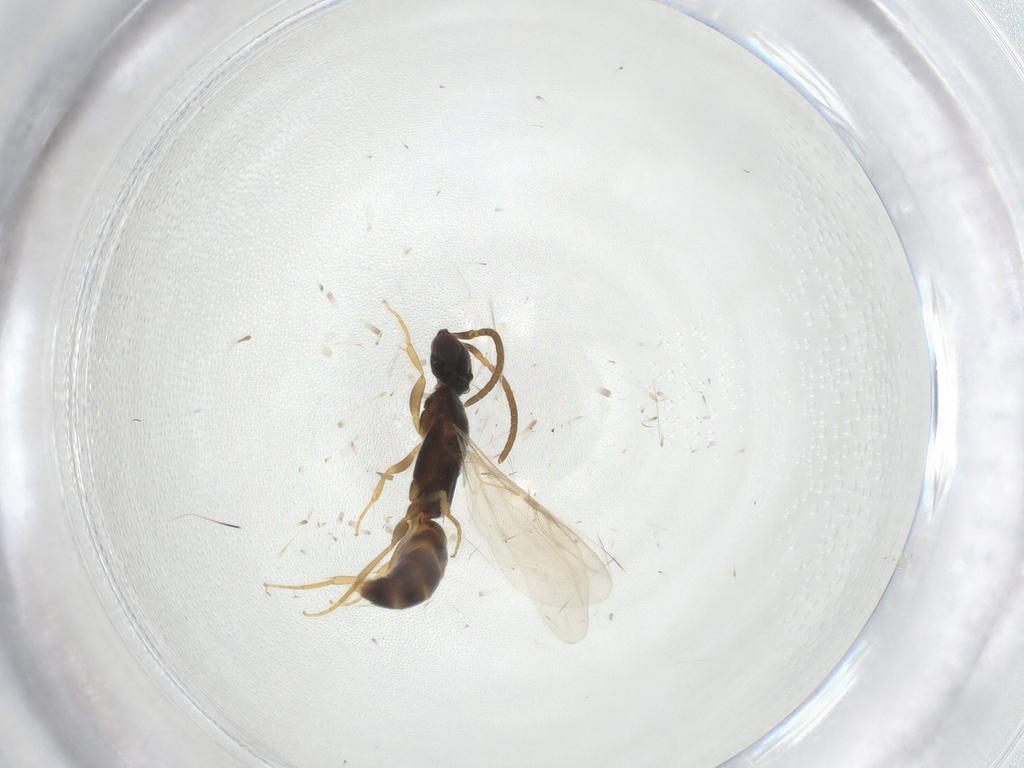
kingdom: Animalia
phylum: Arthropoda
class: Insecta
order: Hymenoptera
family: Bethylidae
